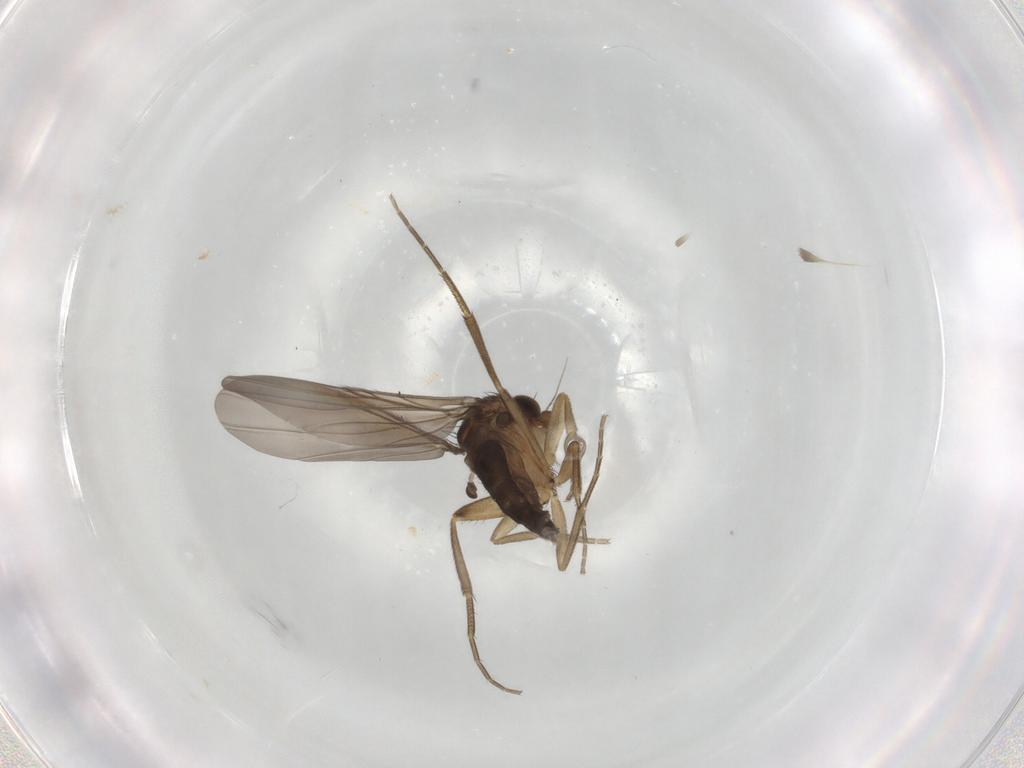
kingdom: Animalia
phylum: Arthropoda
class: Insecta
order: Diptera
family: Phoridae
